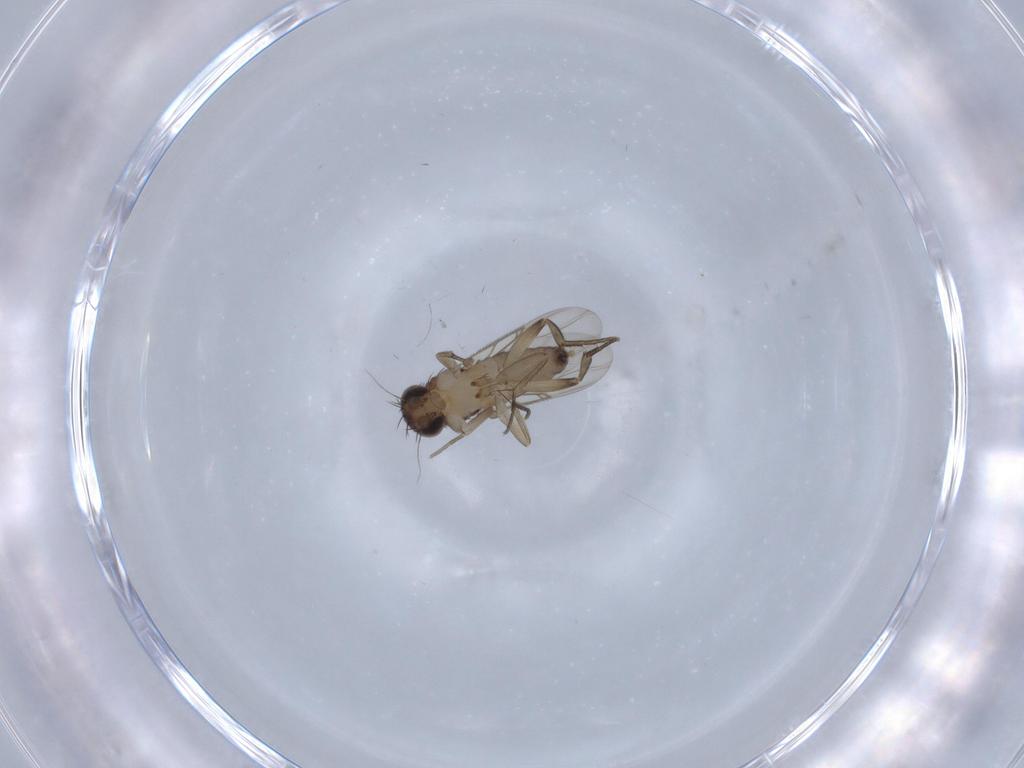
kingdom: Animalia
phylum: Arthropoda
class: Insecta
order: Diptera
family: Phoridae
